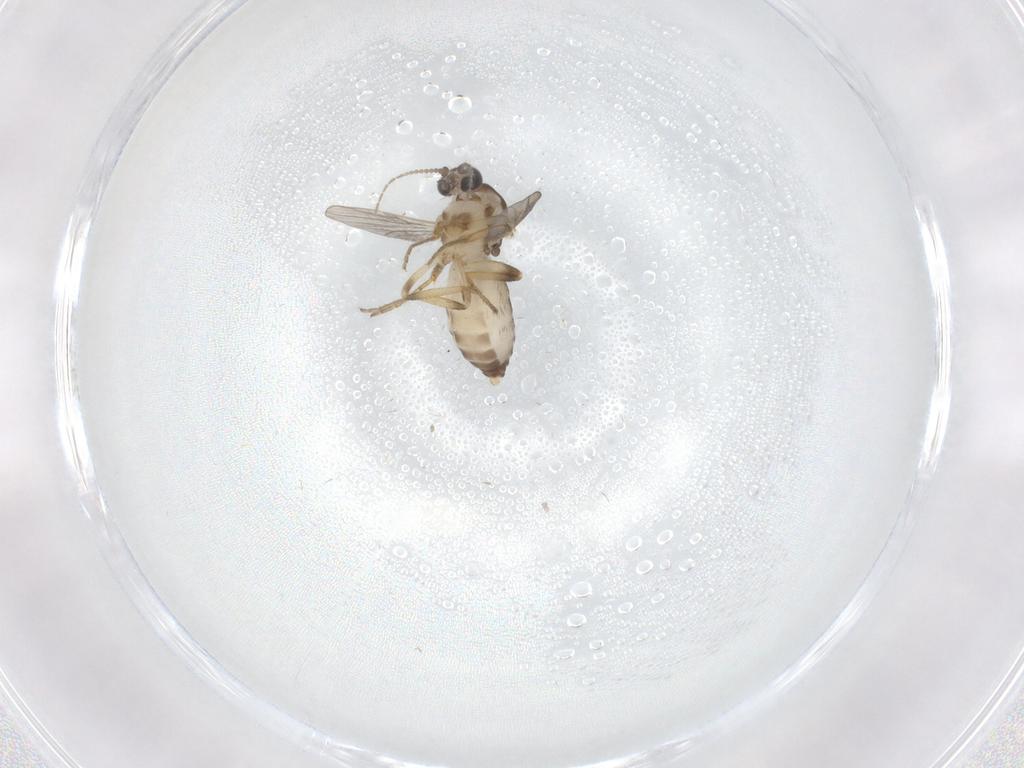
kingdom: Animalia
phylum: Arthropoda
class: Insecta
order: Diptera
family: Ceratopogonidae
